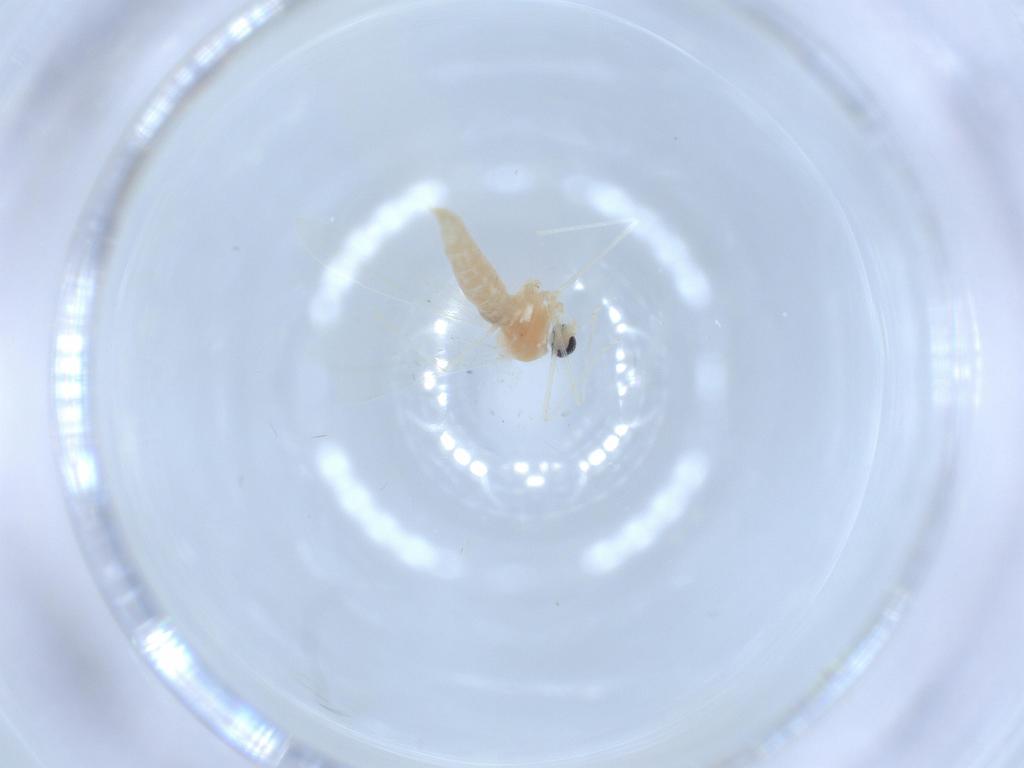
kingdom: Animalia
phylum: Arthropoda
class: Insecta
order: Diptera
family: Cecidomyiidae
